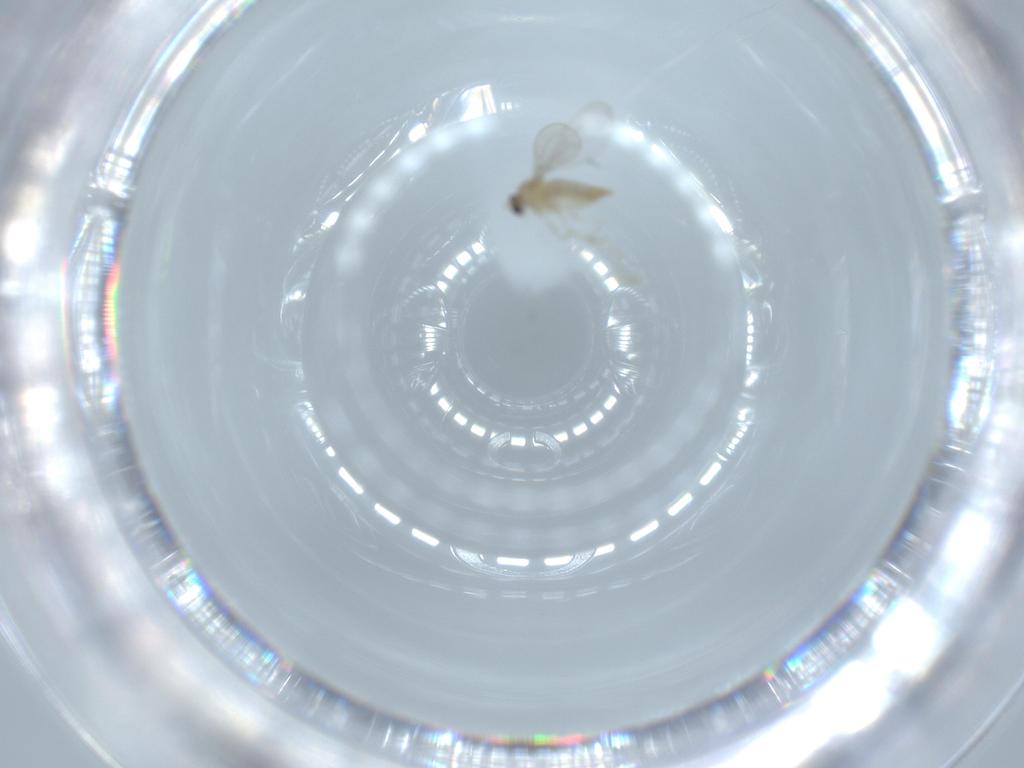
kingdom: Animalia
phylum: Arthropoda
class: Insecta
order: Diptera
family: Cecidomyiidae
